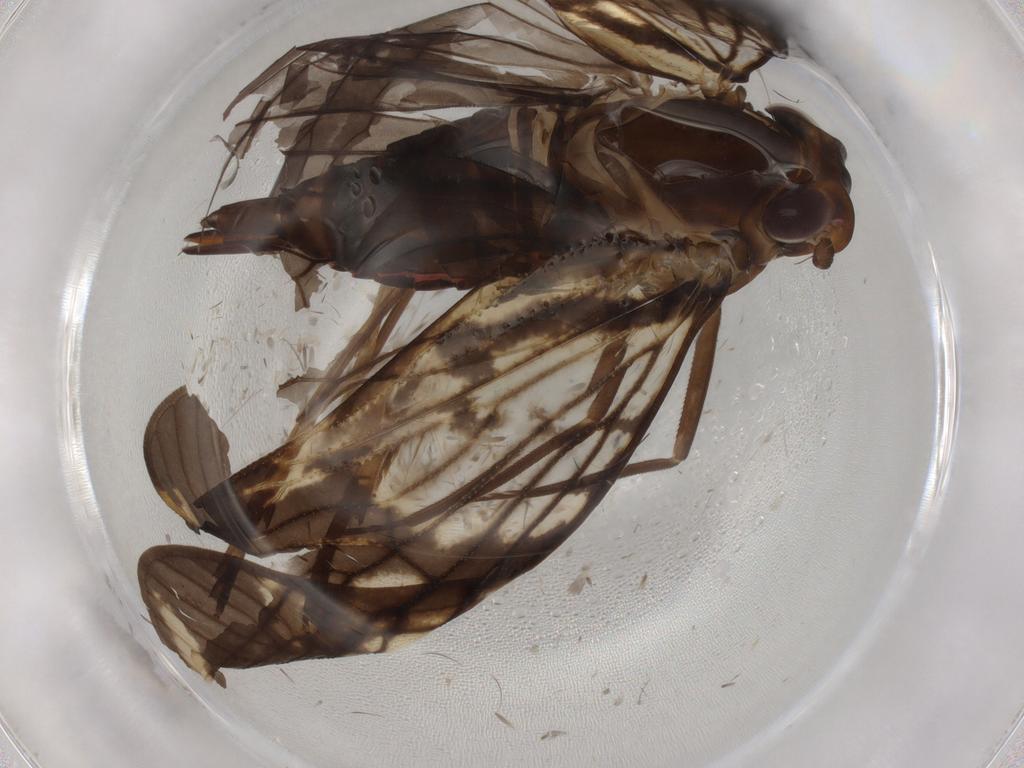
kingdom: Animalia
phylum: Arthropoda
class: Insecta
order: Hemiptera
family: Cixiidae
